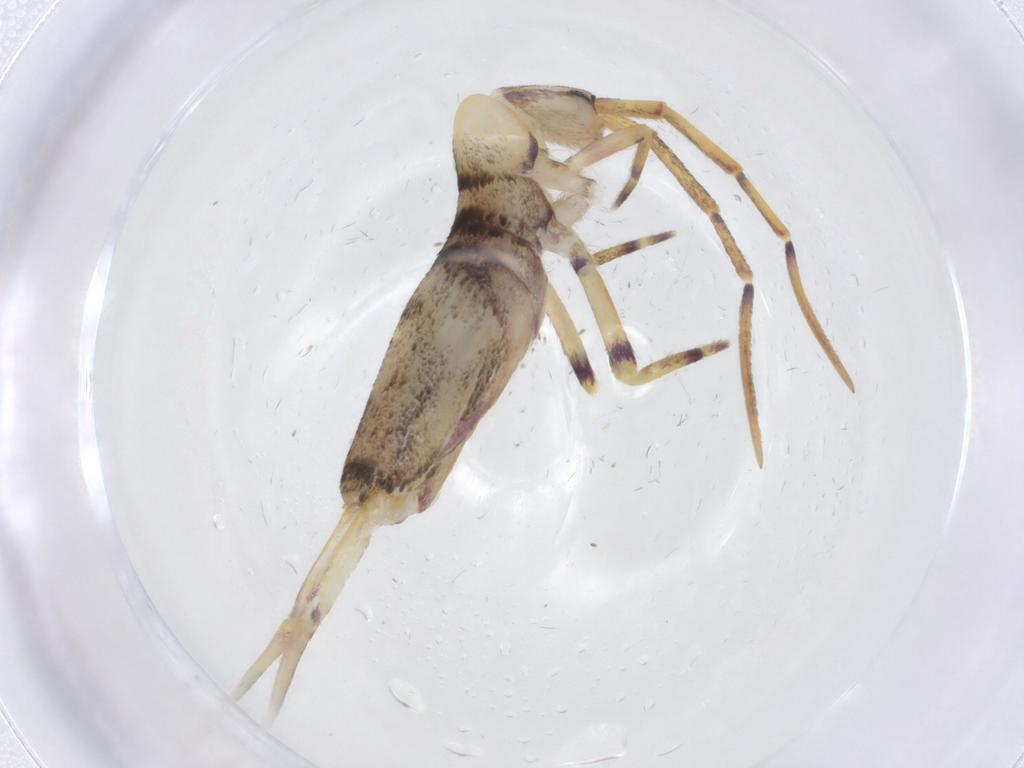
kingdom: Animalia
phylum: Arthropoda
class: Collembola
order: Entomobryomorpha
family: Entomobryidae
